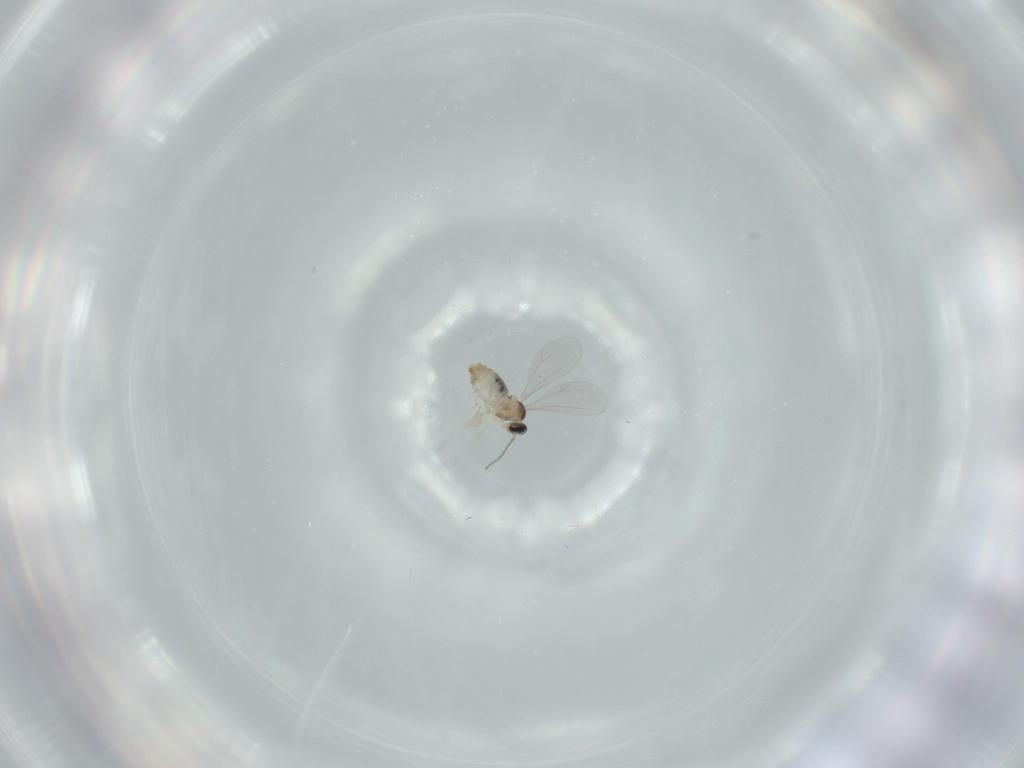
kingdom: Animalia
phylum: Arthropoda
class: Insecta
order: Diptera
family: Cecidomyiidae
